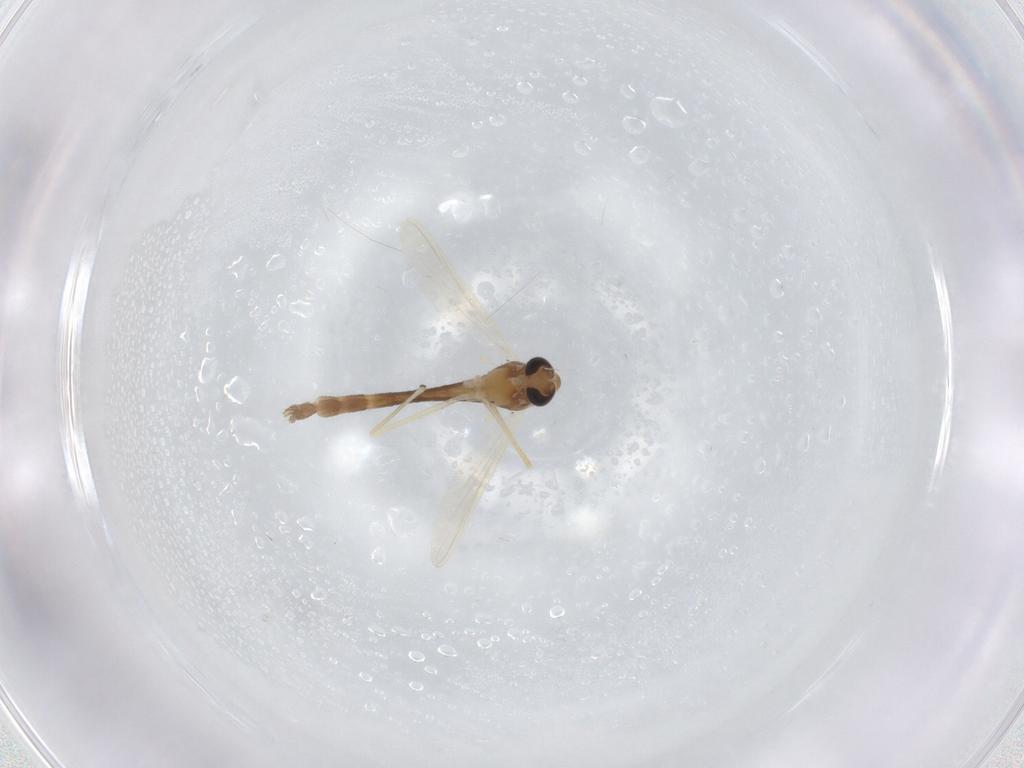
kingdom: Animalia
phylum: Arthropoda
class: Insecta
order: Diptera
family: Chironomidae
